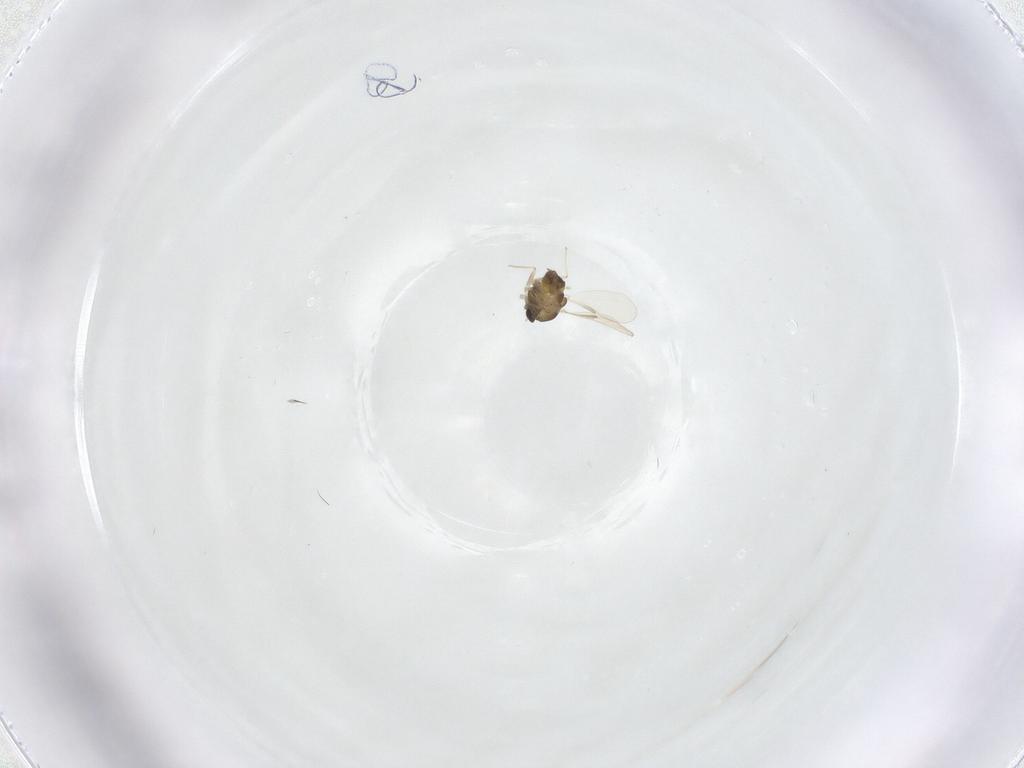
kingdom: Animalia
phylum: Arthropoda
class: Insecta
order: Diptera
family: Chironomidae
